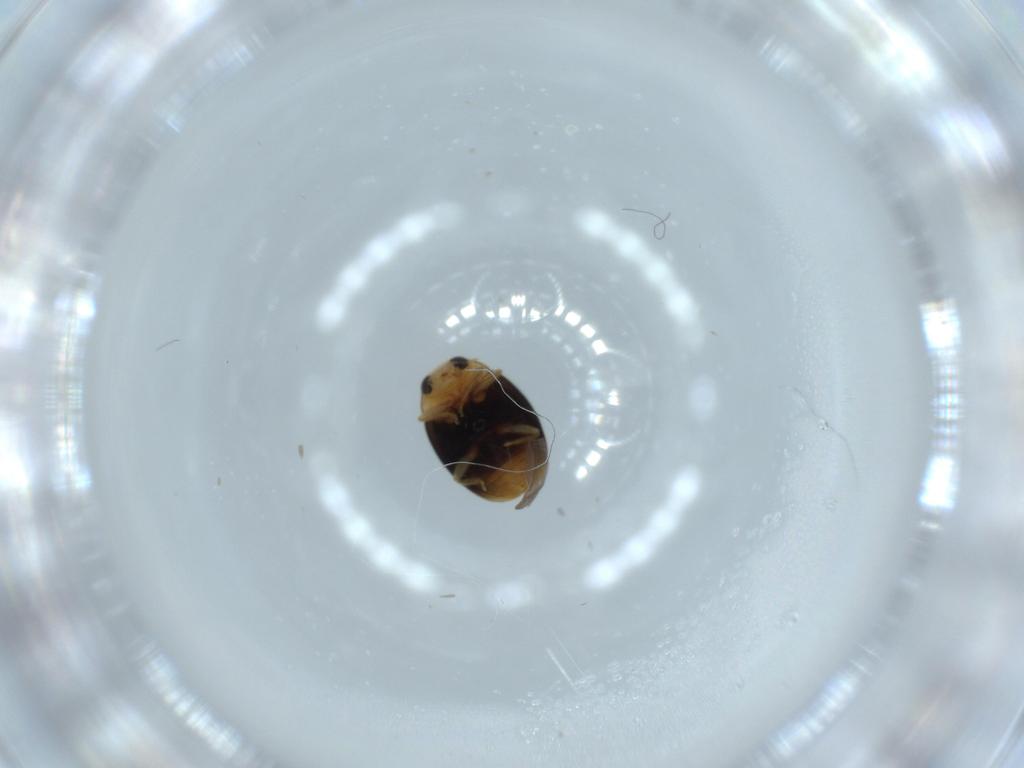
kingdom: Animalia
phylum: Arthropoda
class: Insecta
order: Coleoptera
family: Coccinellidae
